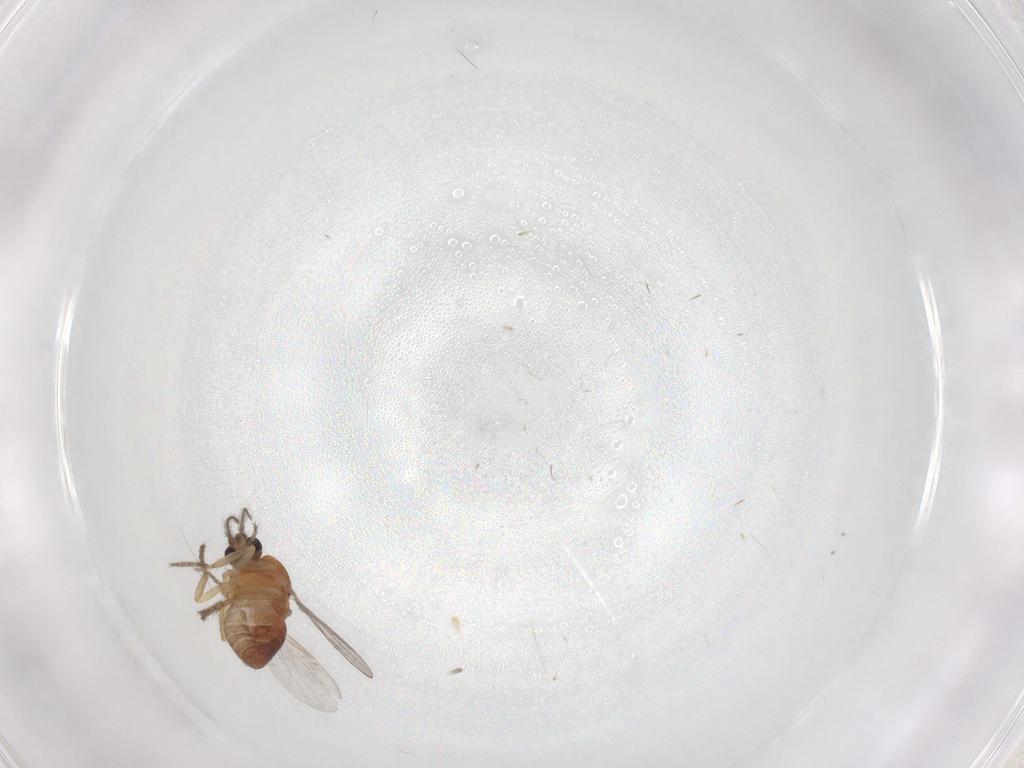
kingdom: Animalia
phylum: Arthropoda
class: Insecta
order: Diptera
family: Ceratopogonidae
